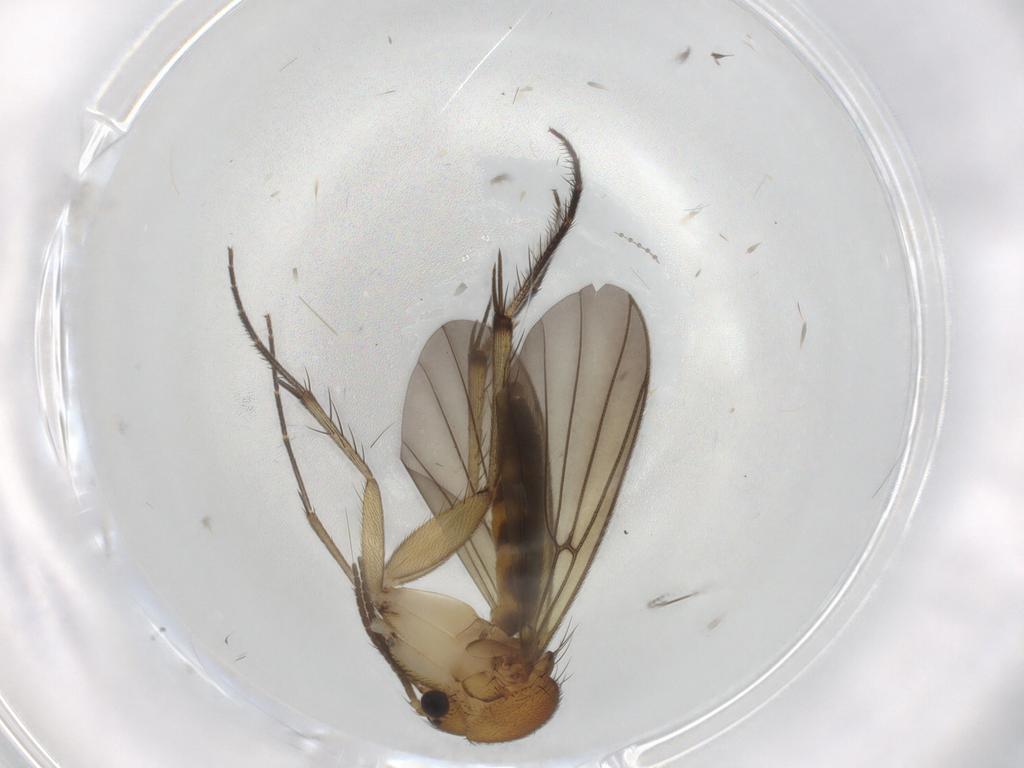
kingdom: Animalia
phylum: Arthropoda
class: Insecta
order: Diptera
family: Mycetophilidae
